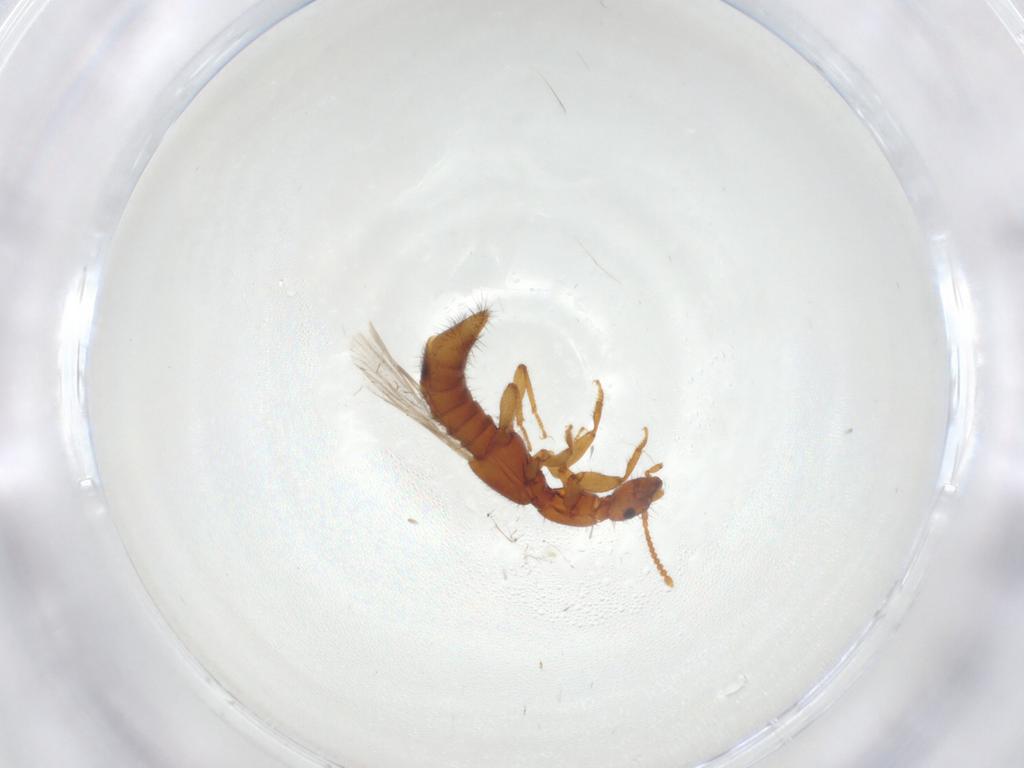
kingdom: Animalia
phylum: Arthropoda
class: Insecta
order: Coleoptera
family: Staphylinidae
